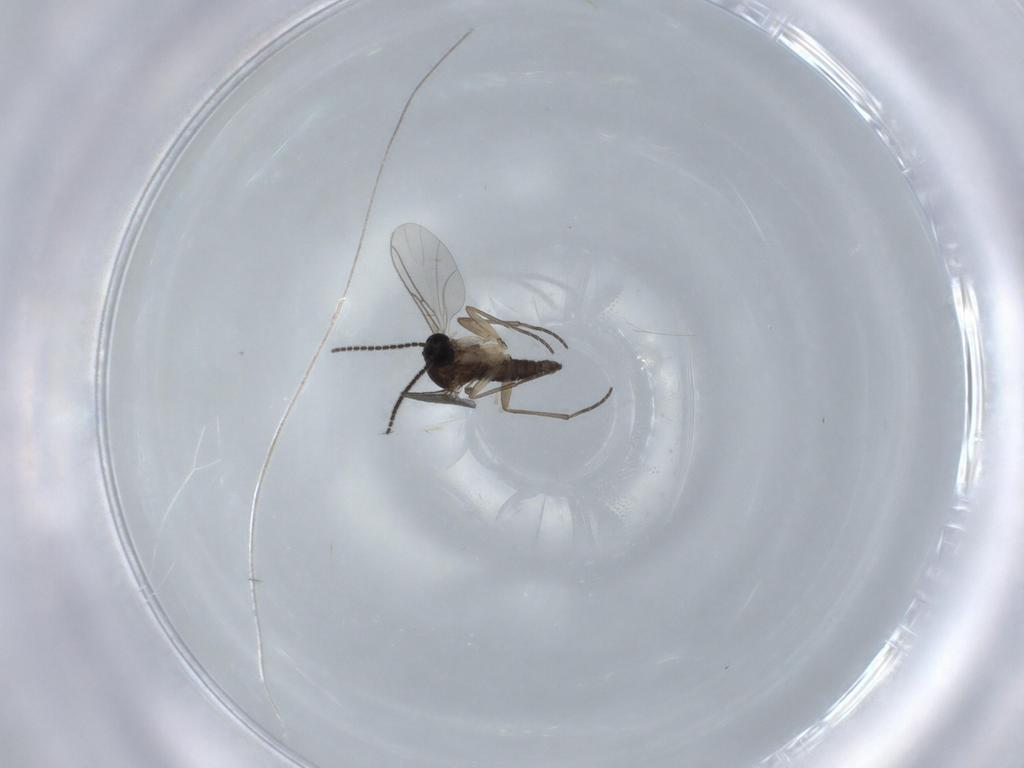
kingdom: Animalia
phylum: Arthropoda
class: Insecta
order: Diptera
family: Sciaridae
